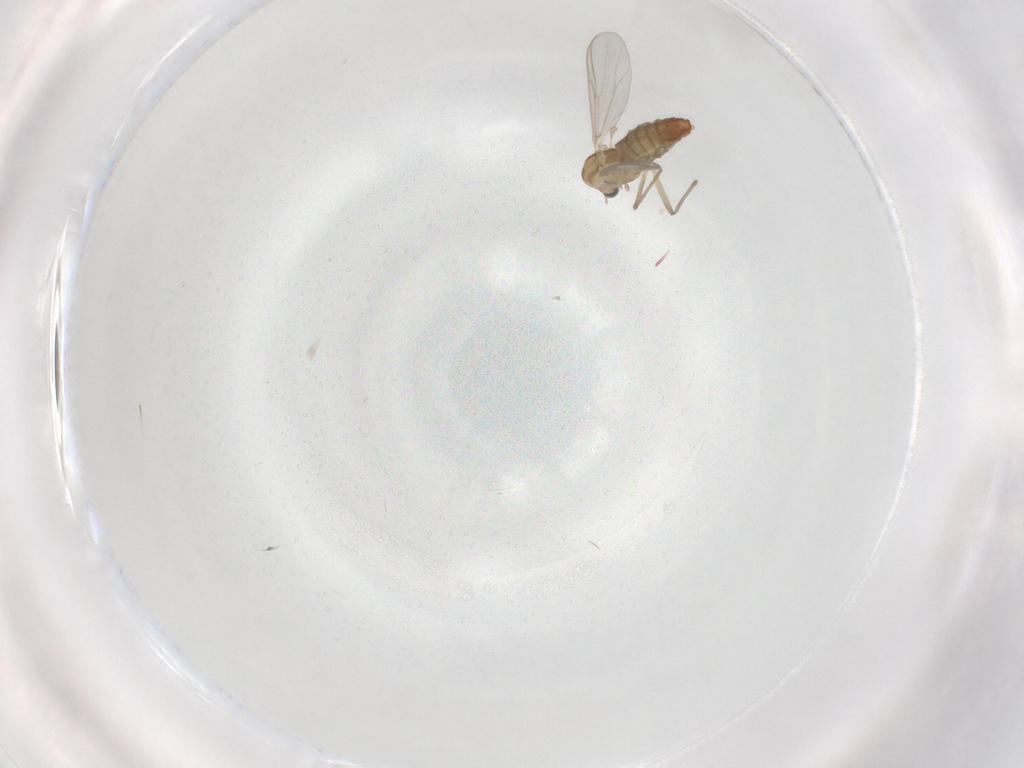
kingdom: Animalia
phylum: Arthropoda
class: Insecta
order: Diptera
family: Chironomidae
